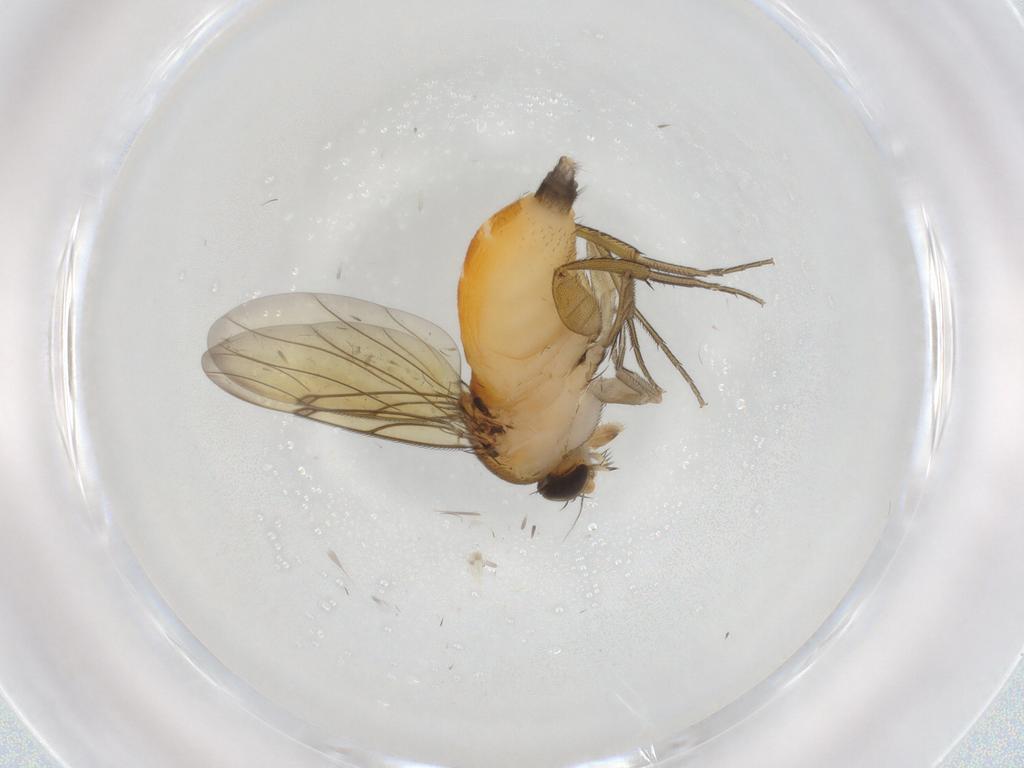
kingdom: Animalia
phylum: Arthropoda
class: Insecta
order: Diptera
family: Phoridae
